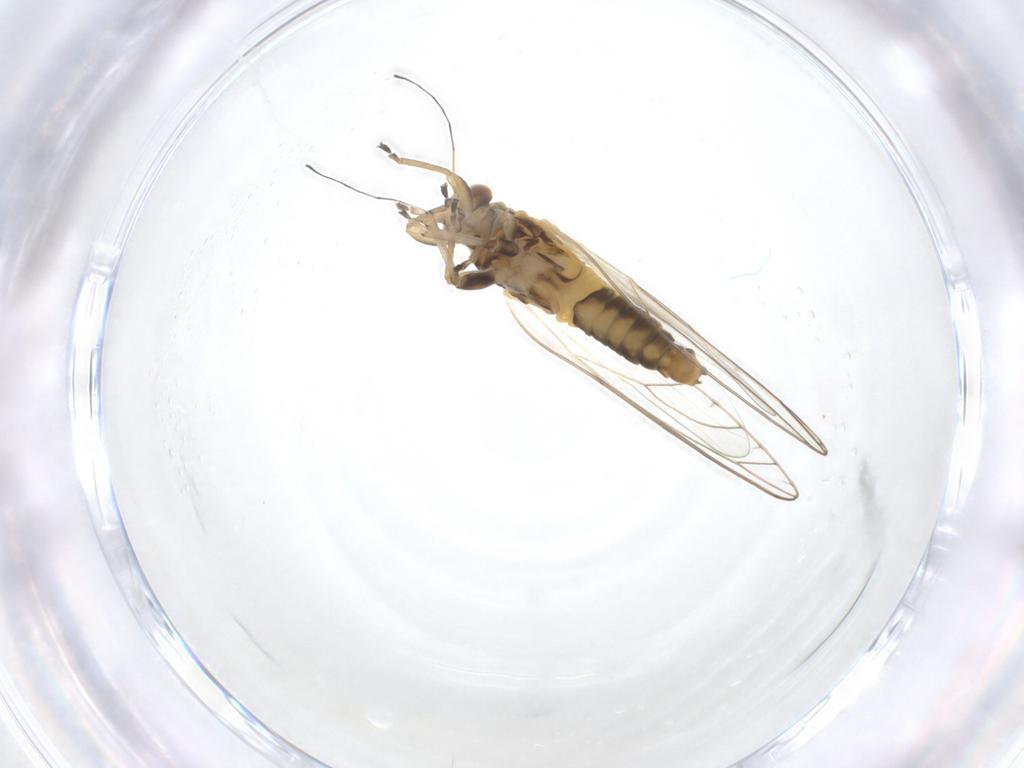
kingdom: Animalia
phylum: Arthropoda
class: Insecta
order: Hemiptera
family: Triozidae
